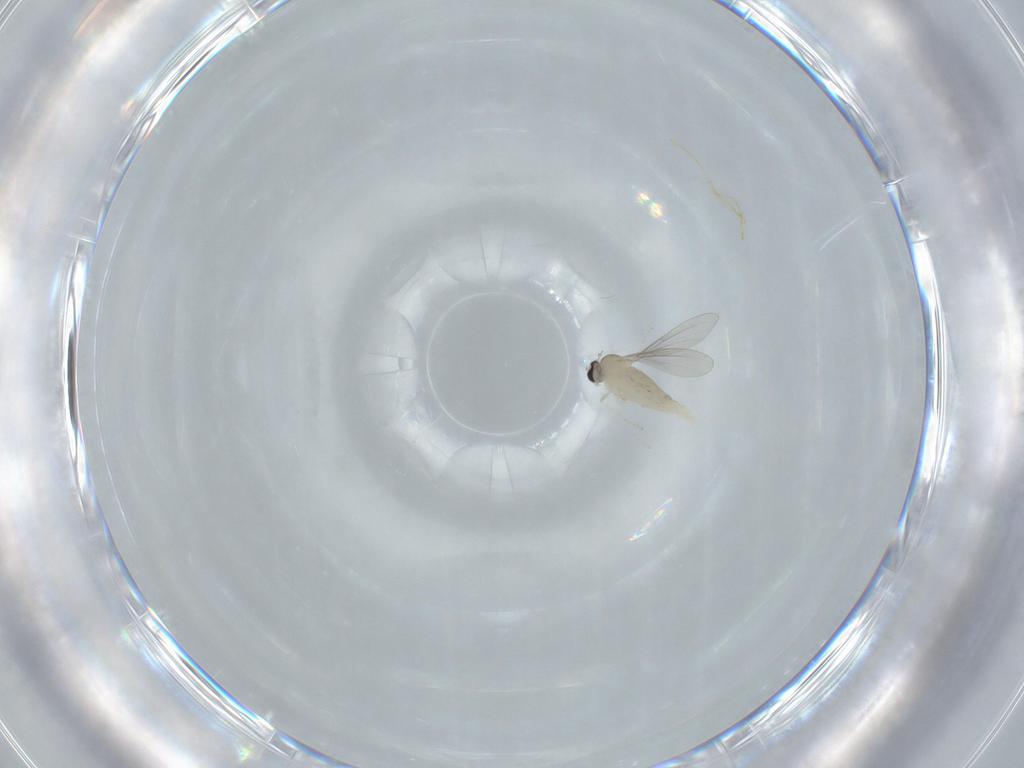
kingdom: Animalia
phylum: Arthropoda
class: Insecta
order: Diptera
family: Cecidomyiidae
